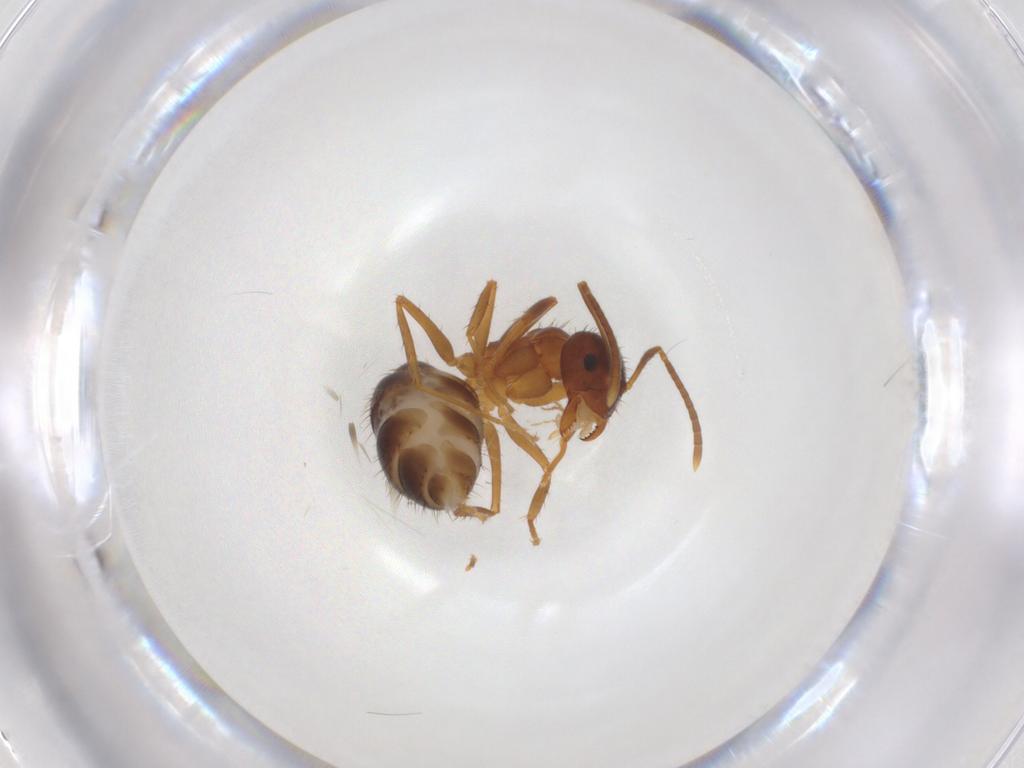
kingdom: Animalia
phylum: Arthropoda
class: Insecta
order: Hymenoptera
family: Formicidae
